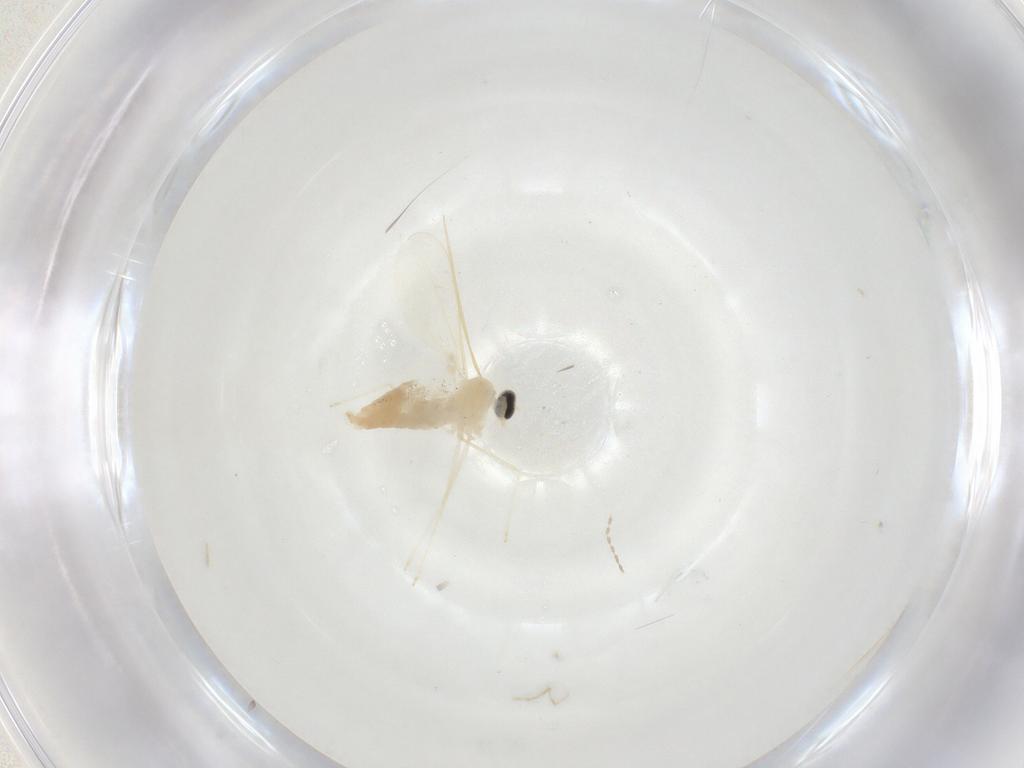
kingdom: Animalia
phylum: Arthropoda
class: Insecta
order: Diptera
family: Cecidomyiidae
